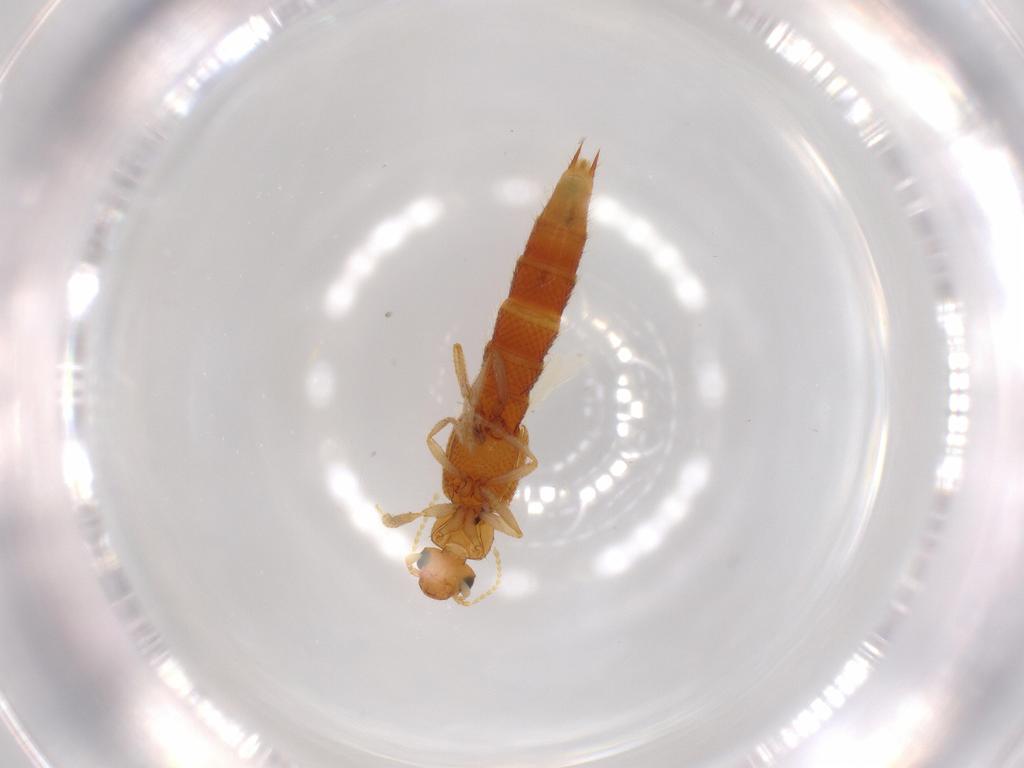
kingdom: Animalia
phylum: Arthropoda
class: Insecta
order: Coleoptera
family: Staphylinidae
